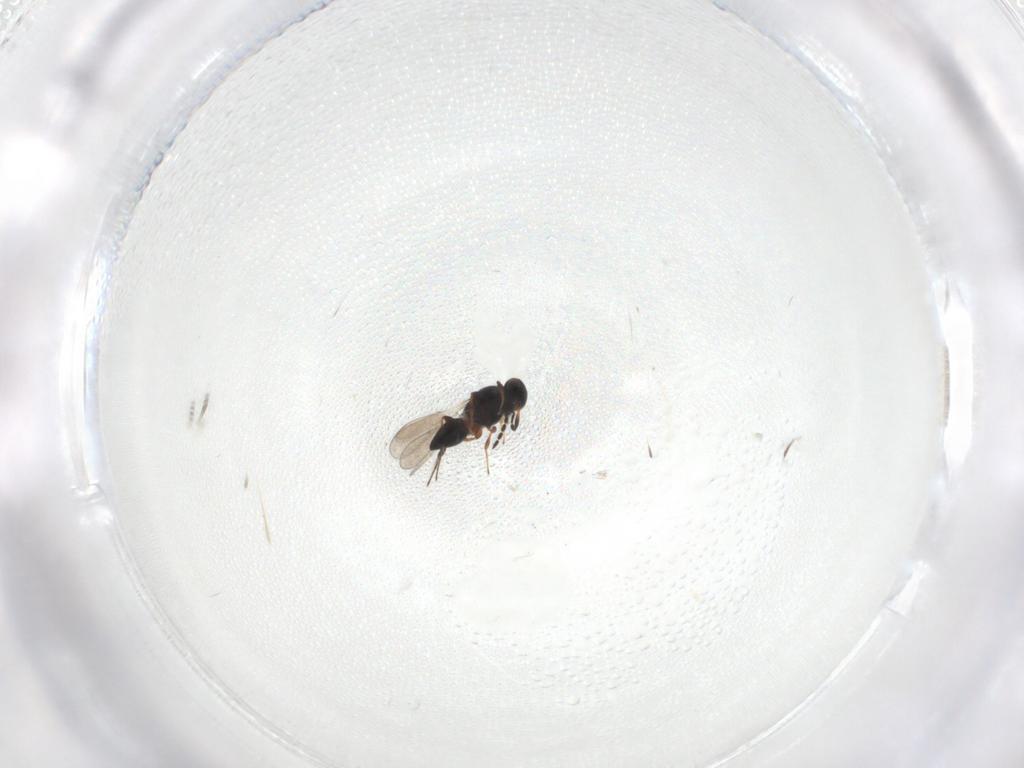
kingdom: Animalia
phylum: Arthropoda
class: Insecta
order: Hymenoptera
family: Platygastridae
